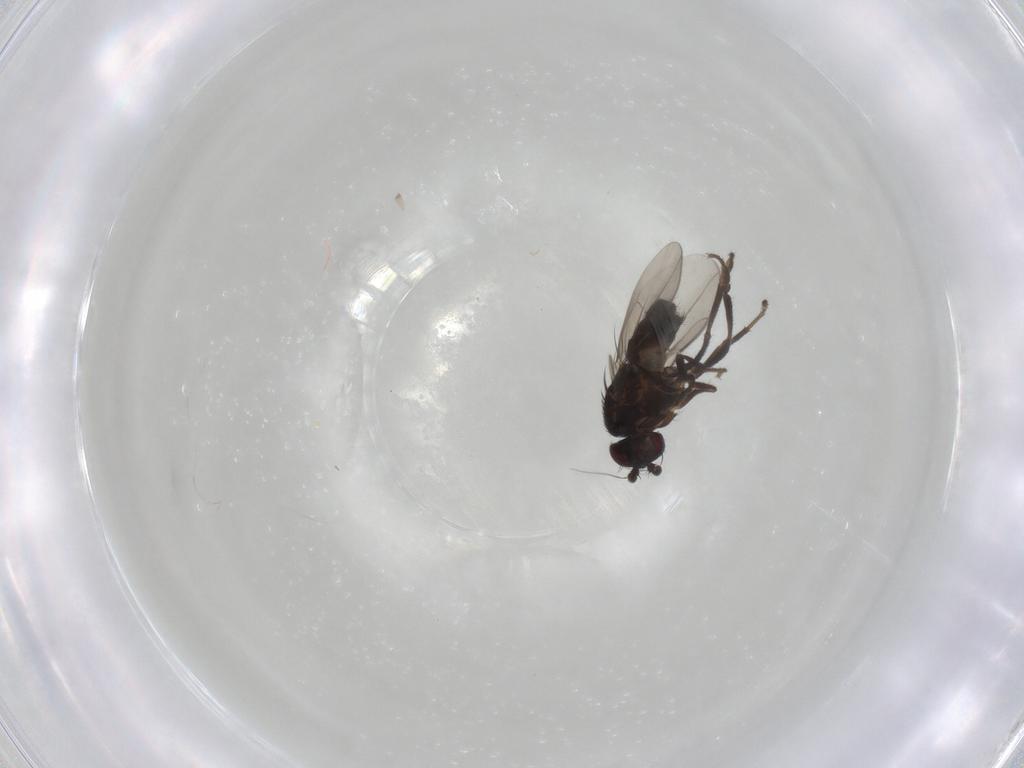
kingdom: Animalia
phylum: Arthropoda
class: Insecta
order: Diptera
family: Sphaeroceridae
